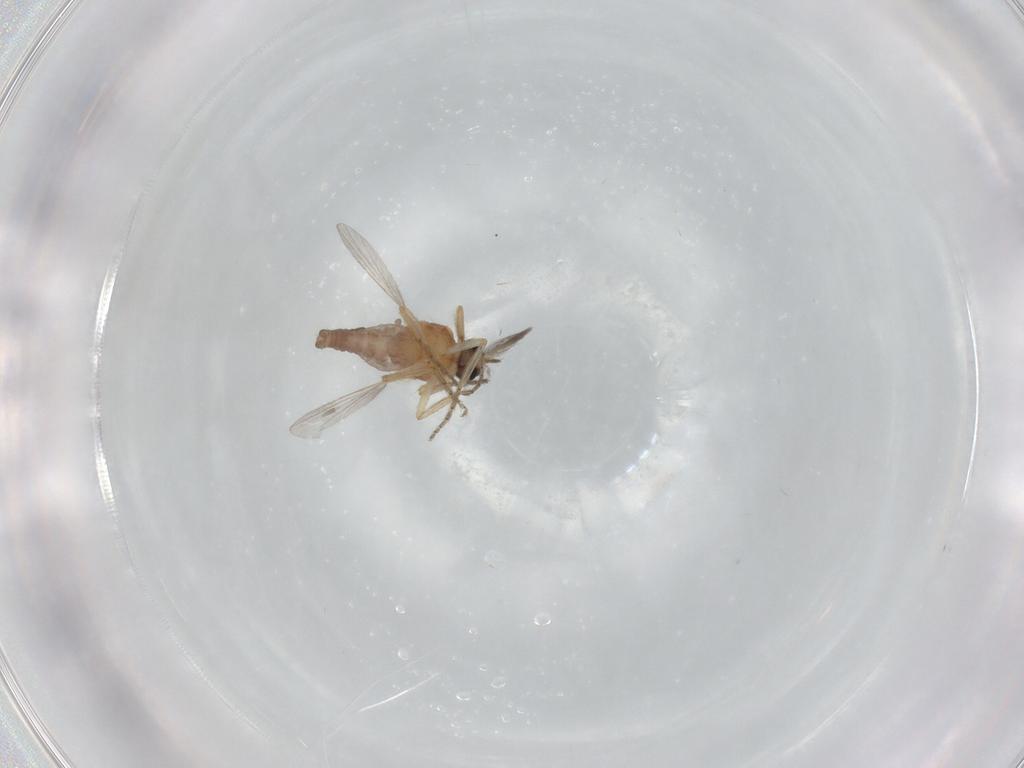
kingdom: Animalia
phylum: Arthropoda
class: Insecta
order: Diptera
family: Ceratopogonidae
